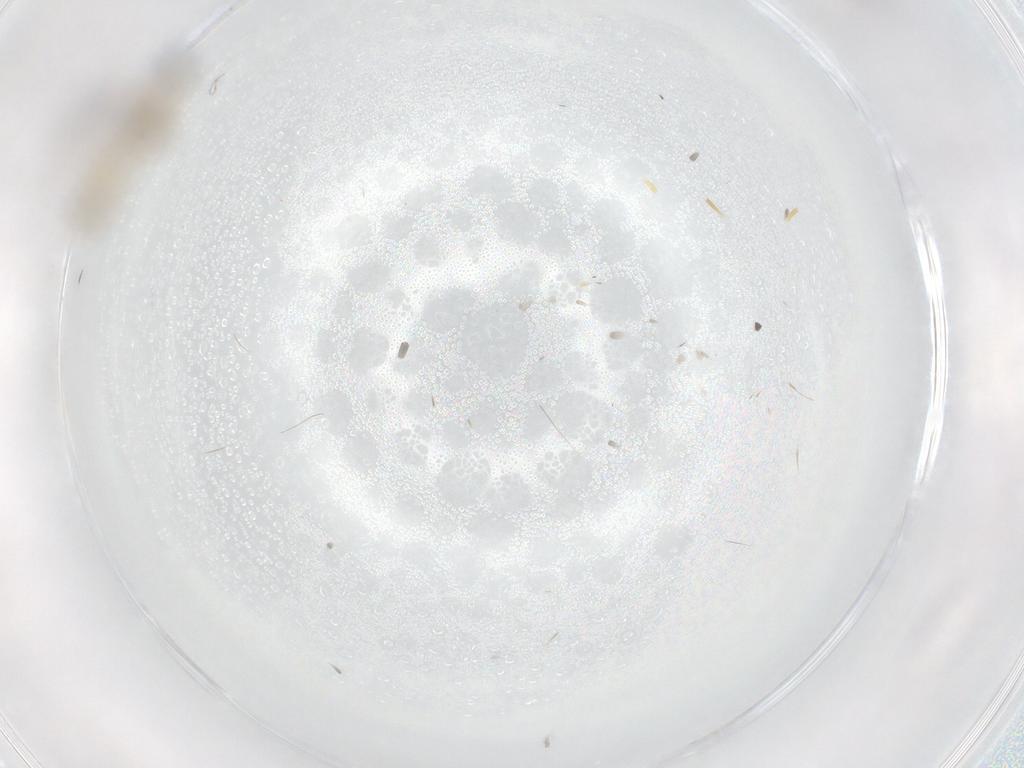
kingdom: Animalia
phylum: Arthropoda
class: Insecta
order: Diptera
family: Cecidomyiidae
